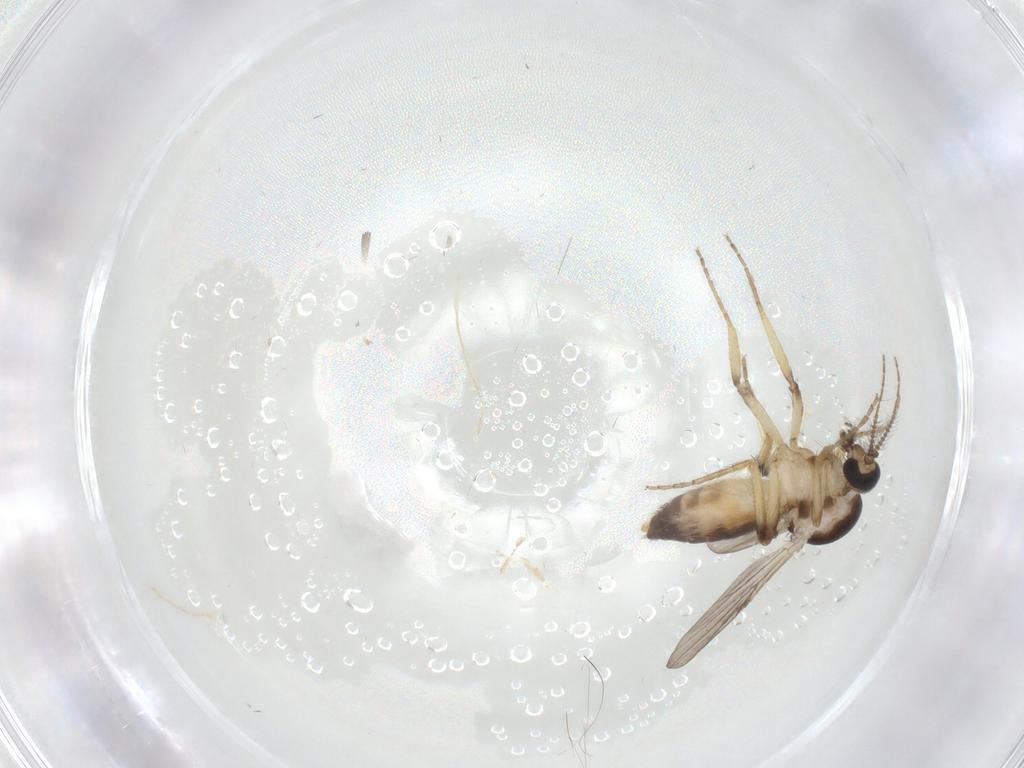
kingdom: Animalia
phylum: Arthropoda
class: Insecta
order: Diptera
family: Ceratopogonidae
